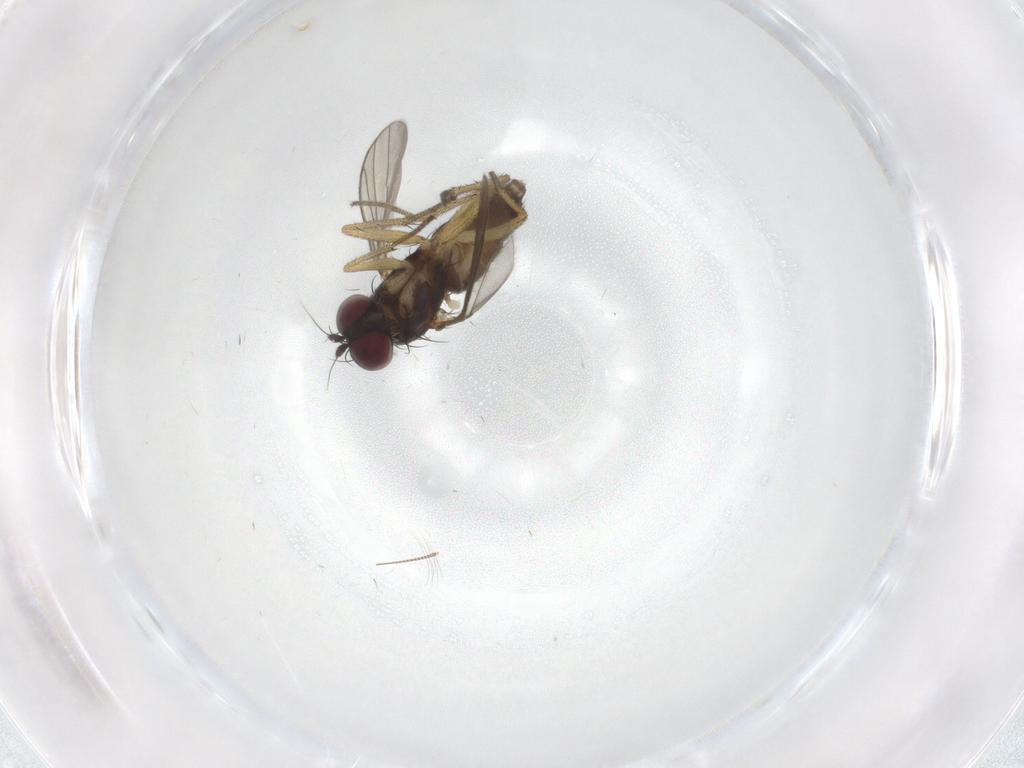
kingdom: Animalia
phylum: Arthropoda
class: Insecta
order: Diptera
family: Dolichopodidae
